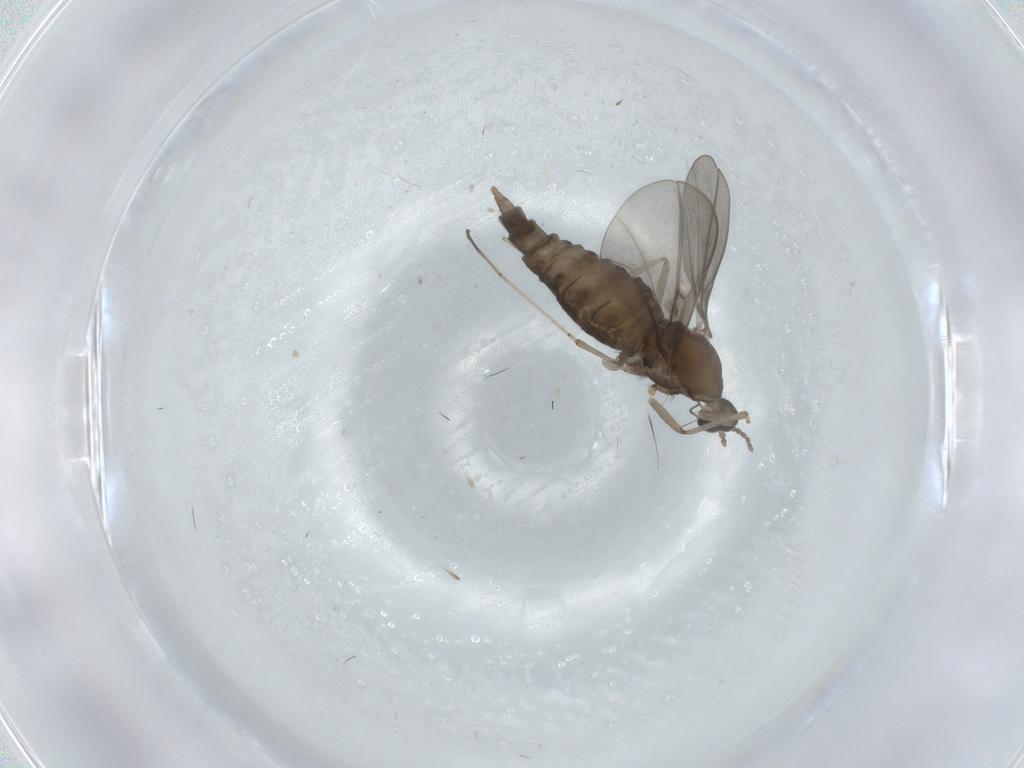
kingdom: Animalia
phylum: Arthropoda
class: Insecta
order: Diptera
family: Cecidomyiidae
